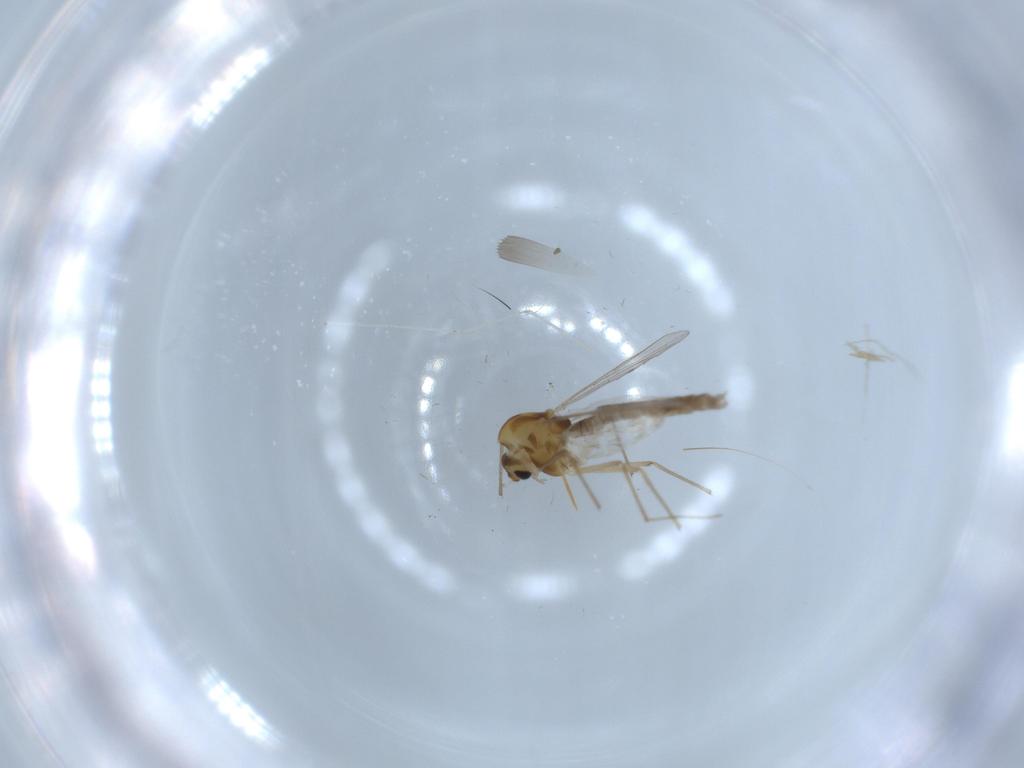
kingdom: Animalia
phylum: Arthropoda
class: Insecta
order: Diptera
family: Chironomidae
